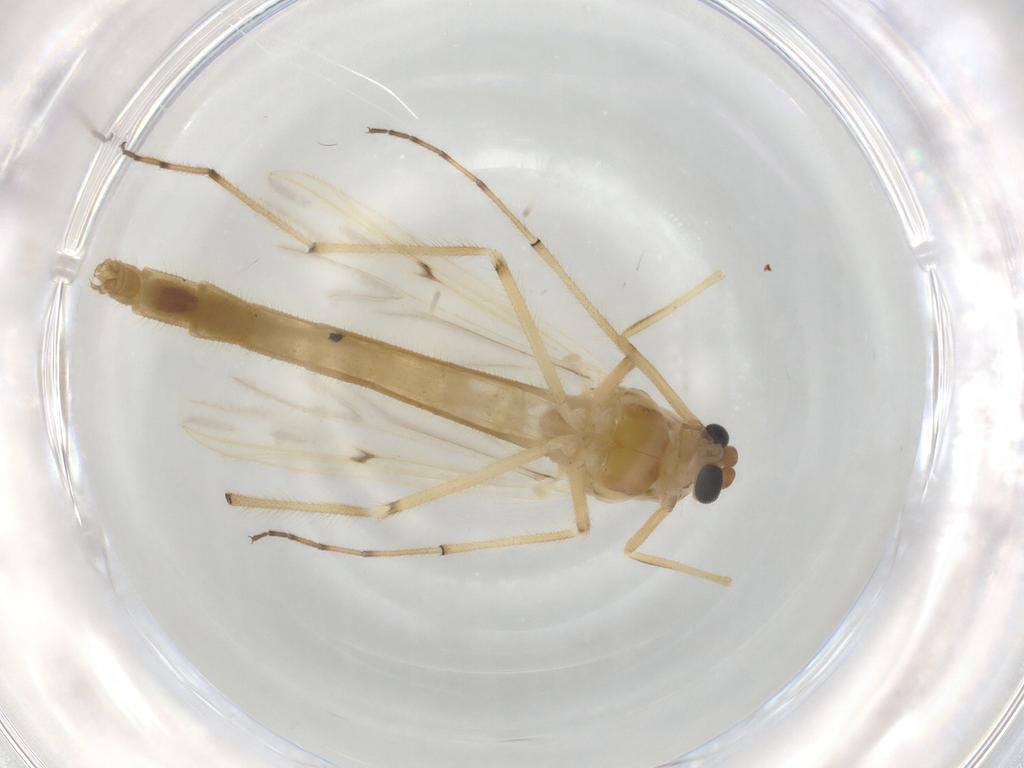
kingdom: Animalia
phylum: Arthropoda
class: Insecta
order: Diptera
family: Chironomidae
